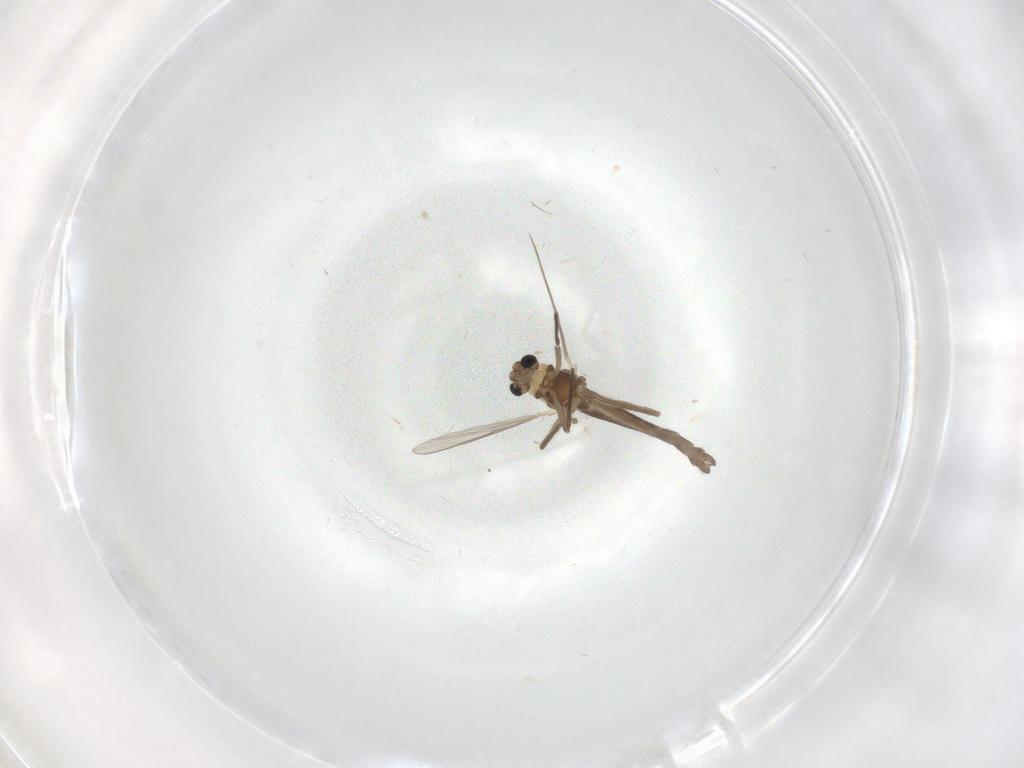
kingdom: Animalia
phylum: Arthropoda
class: Insecta
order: Diptera
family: Chironomidae
